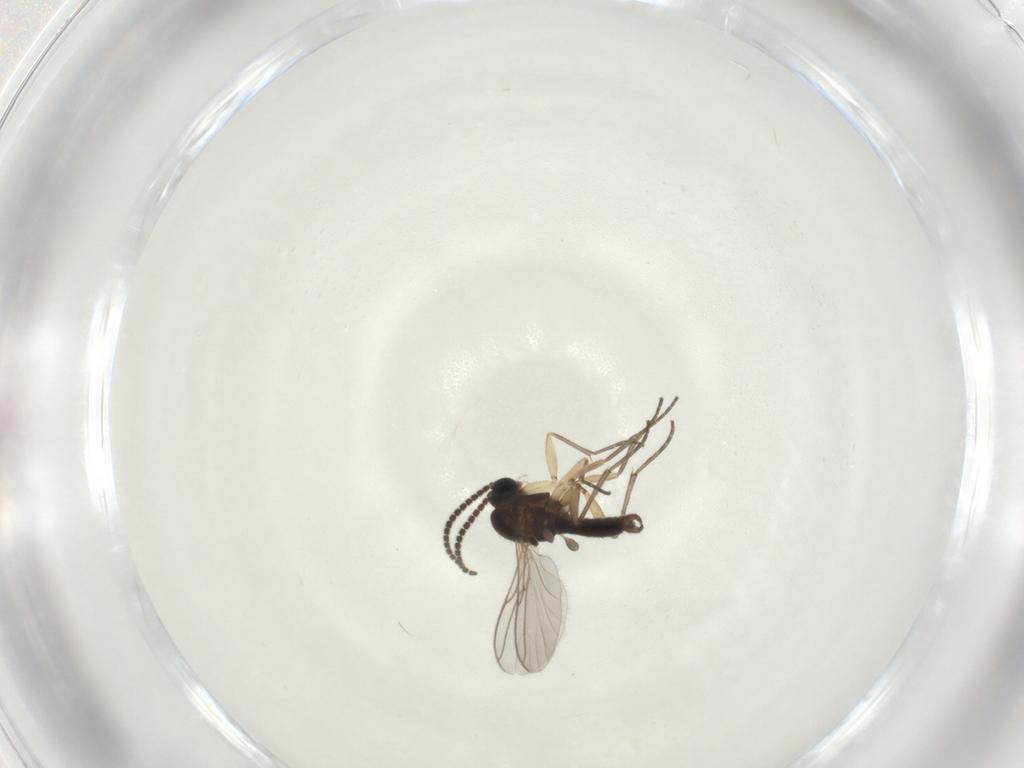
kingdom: Animalia
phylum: Arthropoda
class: Insecta
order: Diptera
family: Sciaridae
